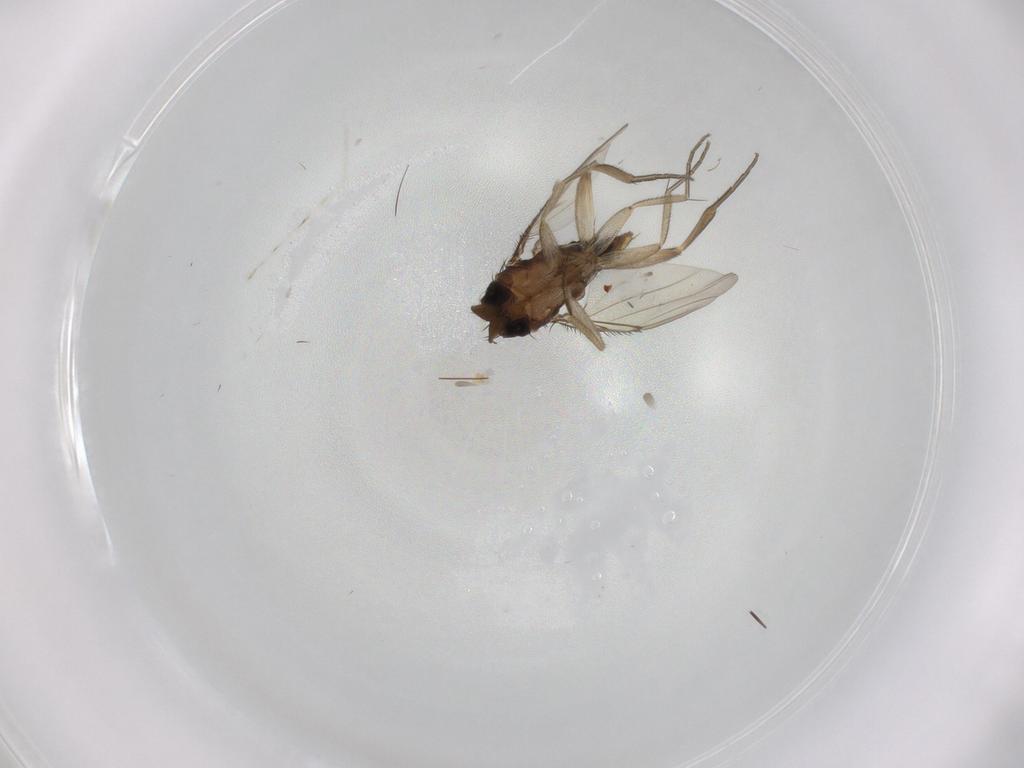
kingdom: Animalia
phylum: Arthropoda
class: Insecta
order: Diptera
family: Phoridae
